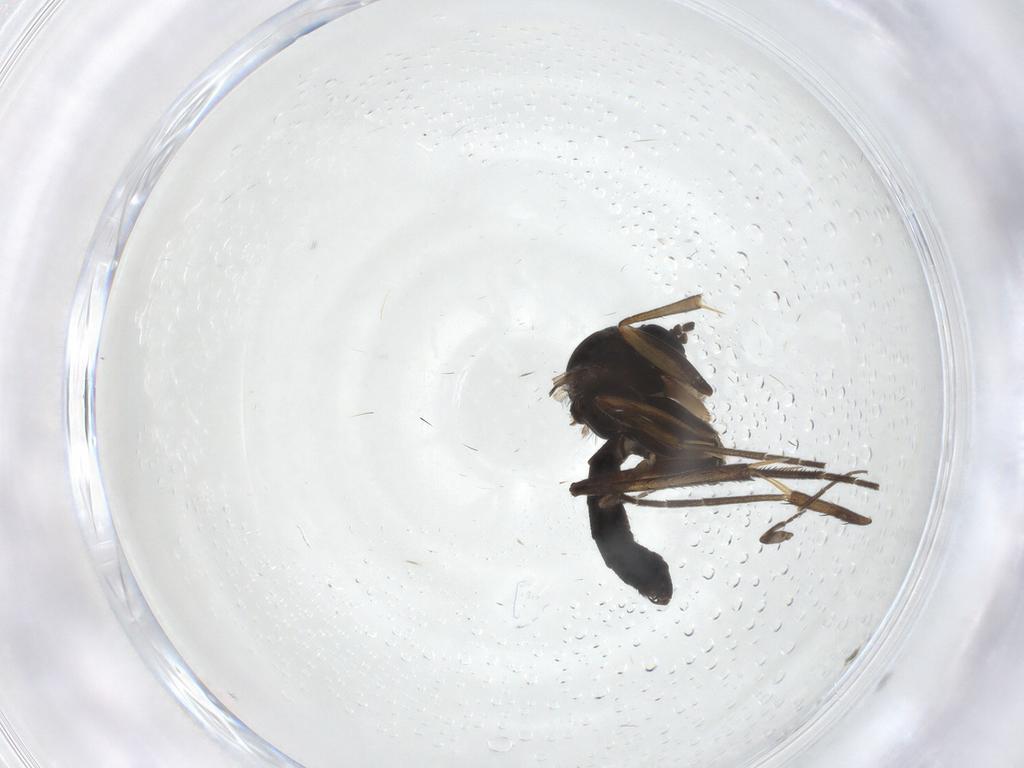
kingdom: Animalia
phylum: Arthropoda
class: Insecta
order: Diptera
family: Scatopsidae
